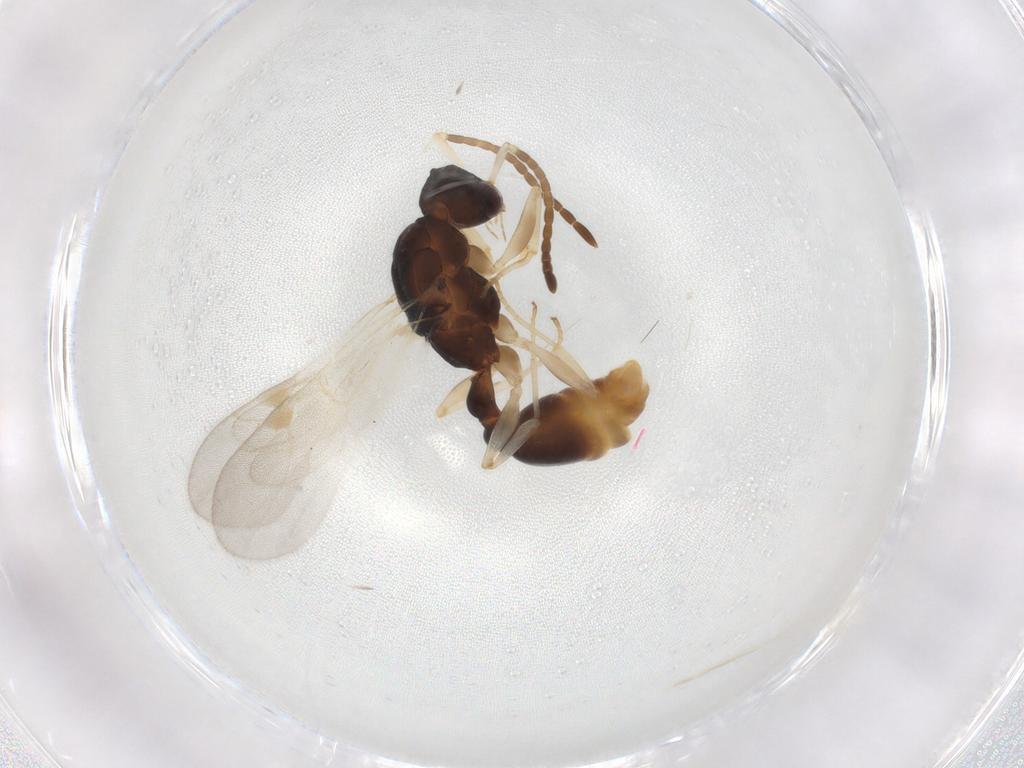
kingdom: Animalia
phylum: Arthropoda
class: Insecta
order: Hymenoptera
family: Formicidae
